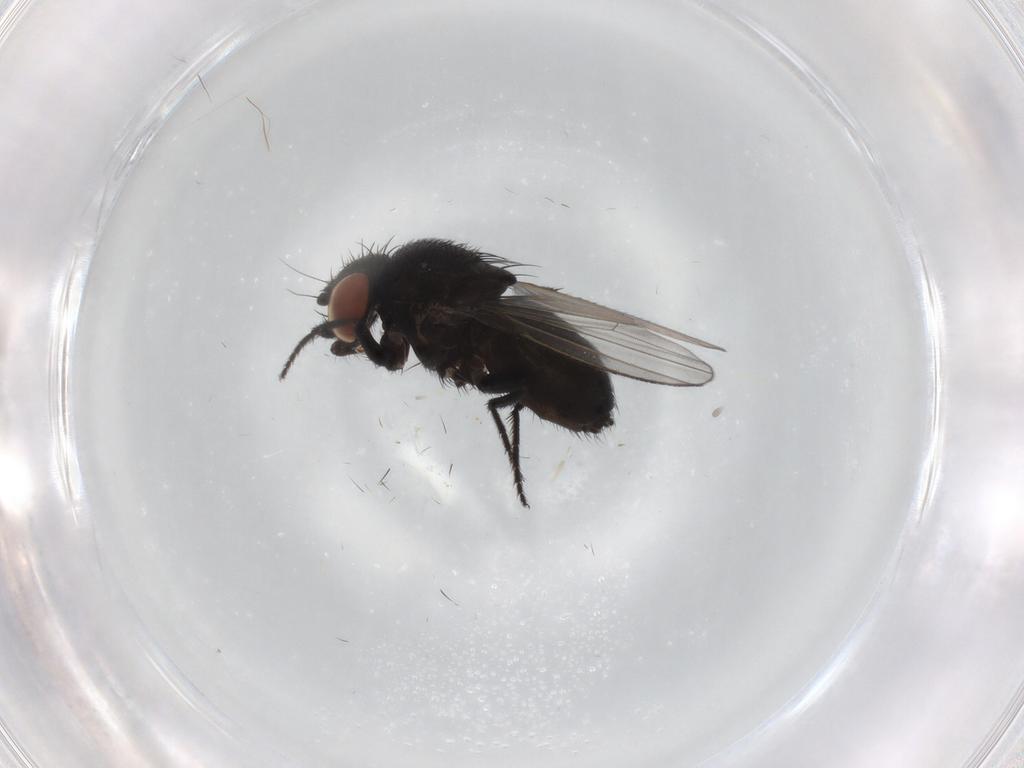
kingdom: Animalia
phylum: Arthropoda
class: Insecta
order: Diptera
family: Milichiidae
